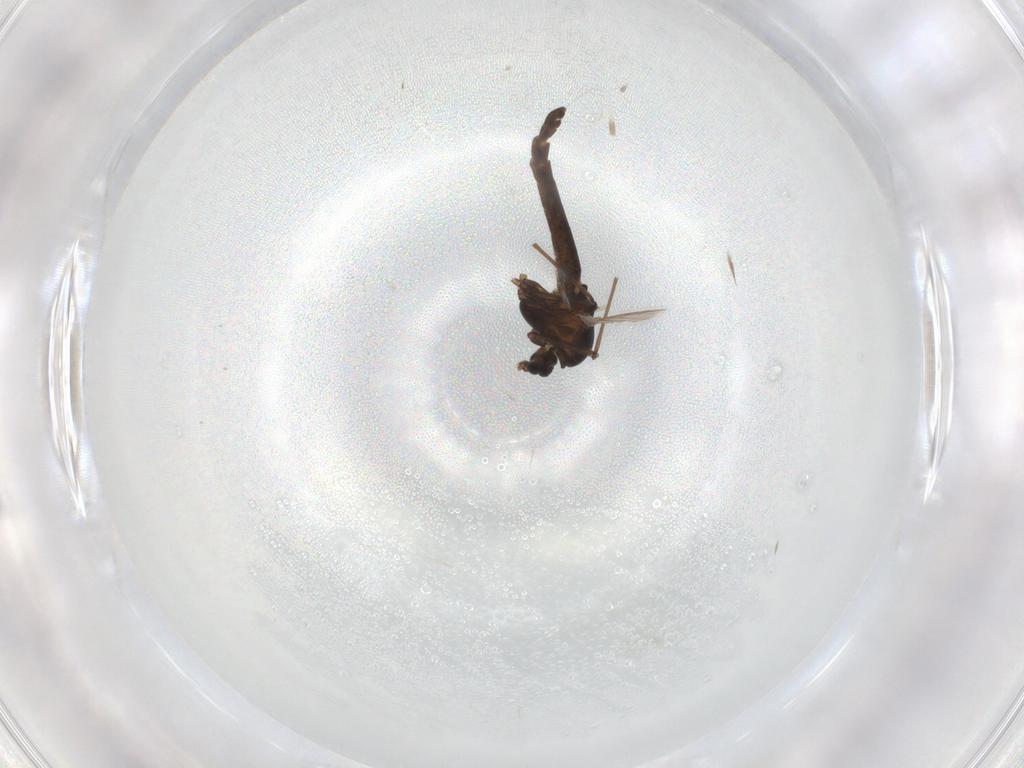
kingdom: Animalia
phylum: Arthropoda
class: Insecta
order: Diptera
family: Chironomidae
